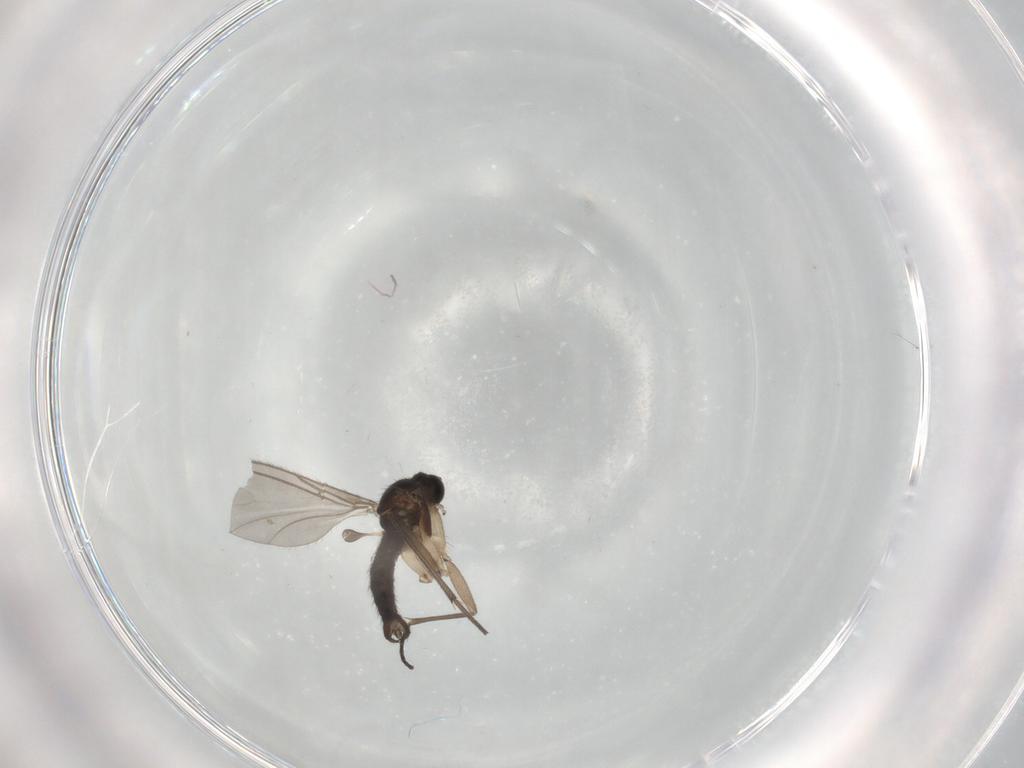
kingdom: Animalia
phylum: Arthropoda
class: Insecta
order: Diptera
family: Sciaridae
